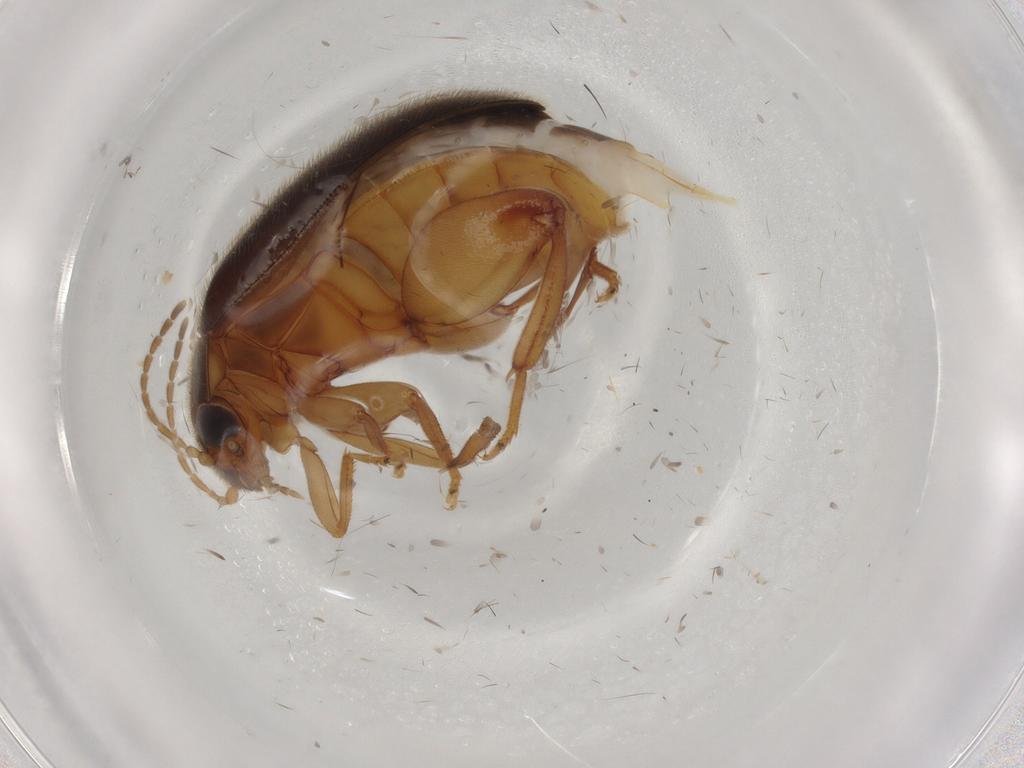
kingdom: Animalia
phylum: Arthropoda
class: Insecta
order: Coleoptera
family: Scirtidae
